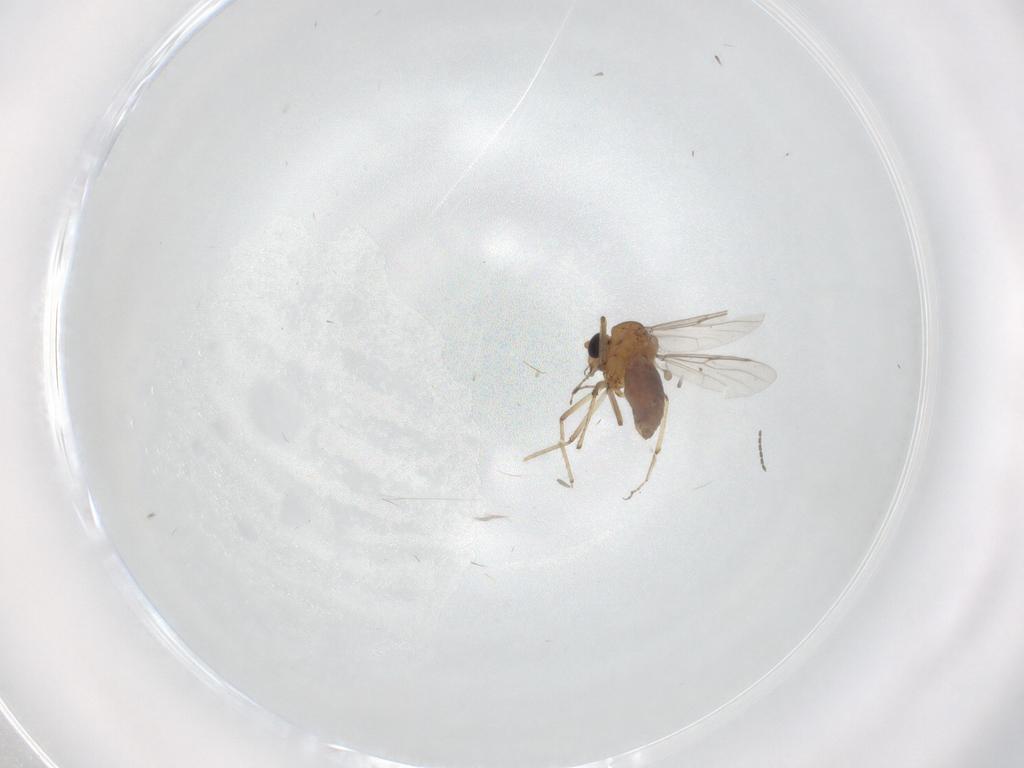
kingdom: Animalia
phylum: Arthropoda
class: Insecta
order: Diptera
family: Ceratopogonidae
